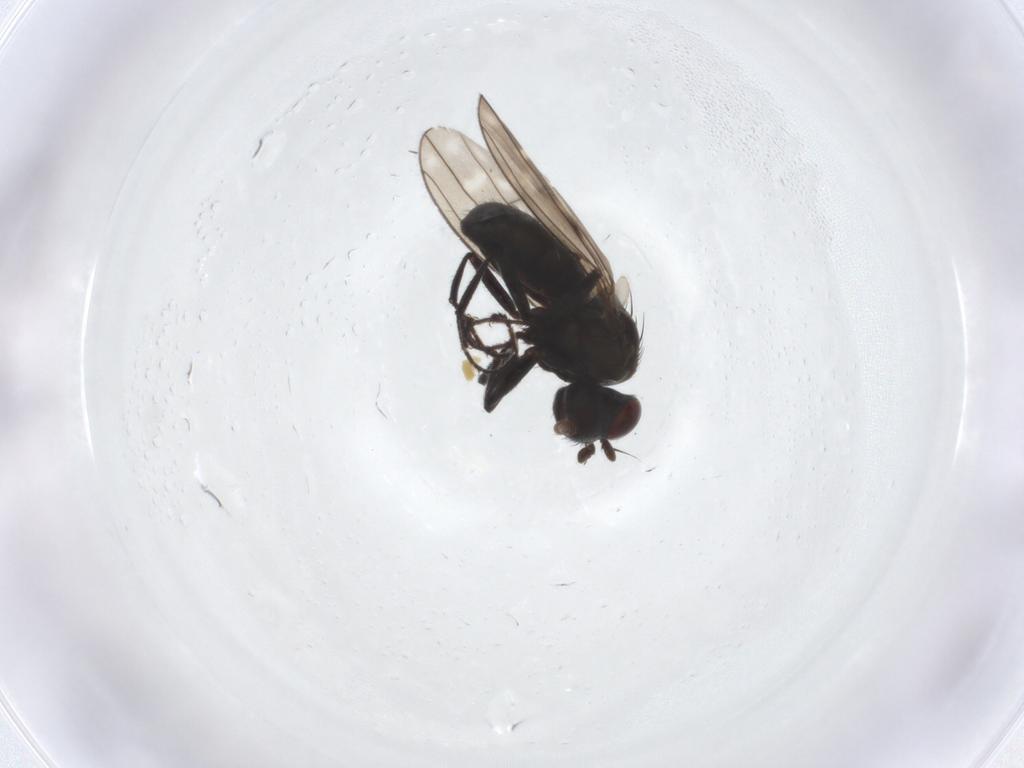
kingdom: Animalia
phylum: Arthropoda
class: Insecta
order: Diptera
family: Ephydridae
